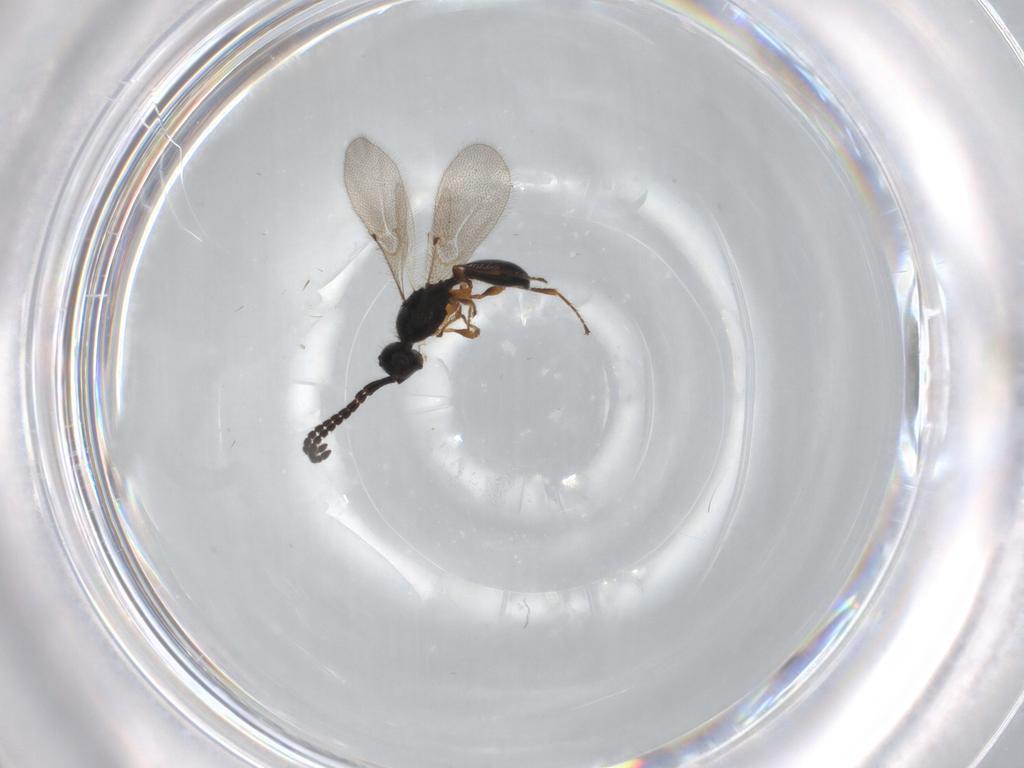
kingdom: Animalia
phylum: Arthropoda
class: Insecta
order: Hymenoptera
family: Diapriidae
